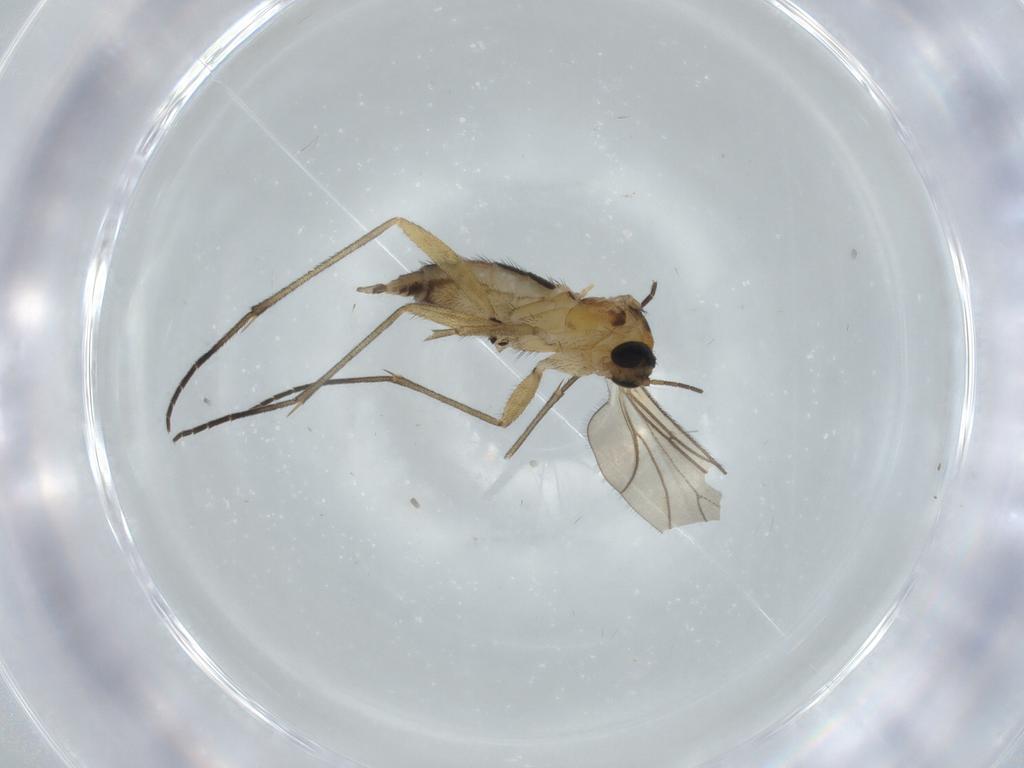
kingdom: Animalia
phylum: Arthropoda
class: Insecta
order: Diptera
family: Sciaridae
